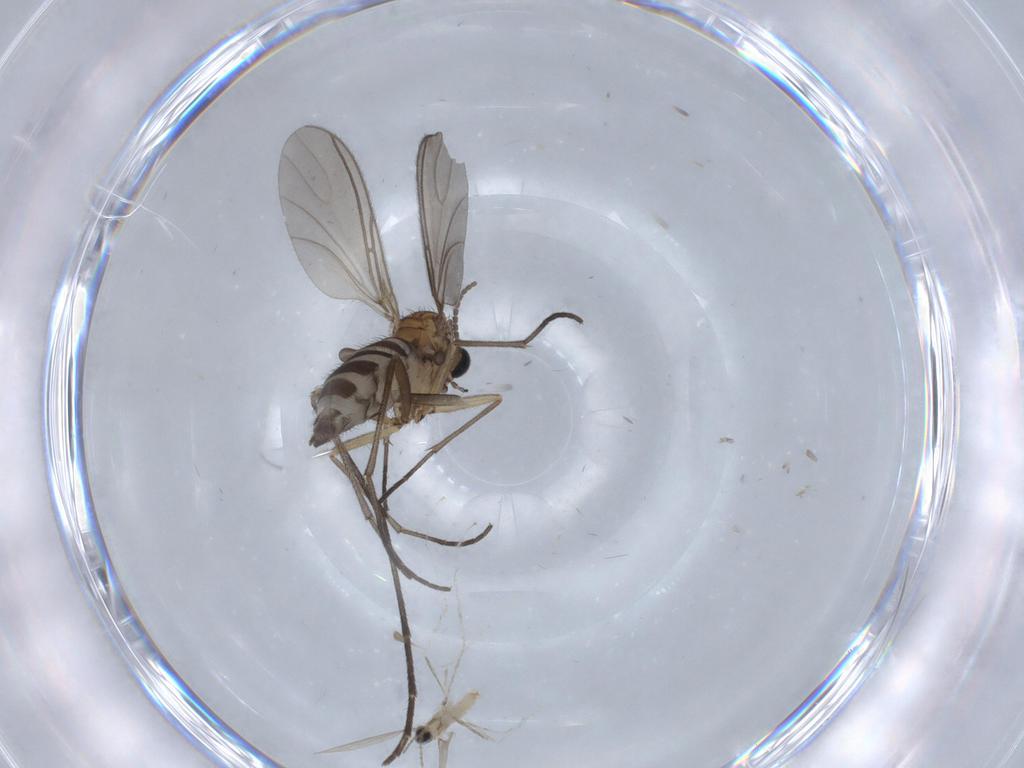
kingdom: Animalia
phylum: Arthropoda
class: Insecta
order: Diptera
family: Cecidomyiidae
